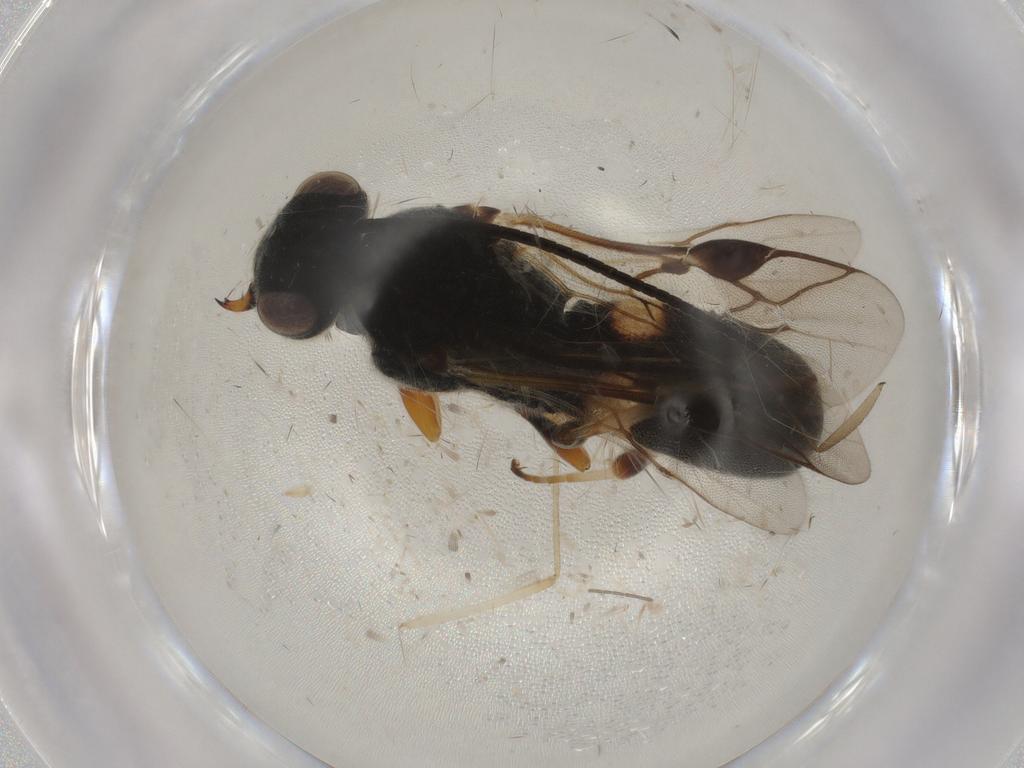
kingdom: Animalia
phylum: Arthropoda
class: Insecta
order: Hymenoptera
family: Braconidae
